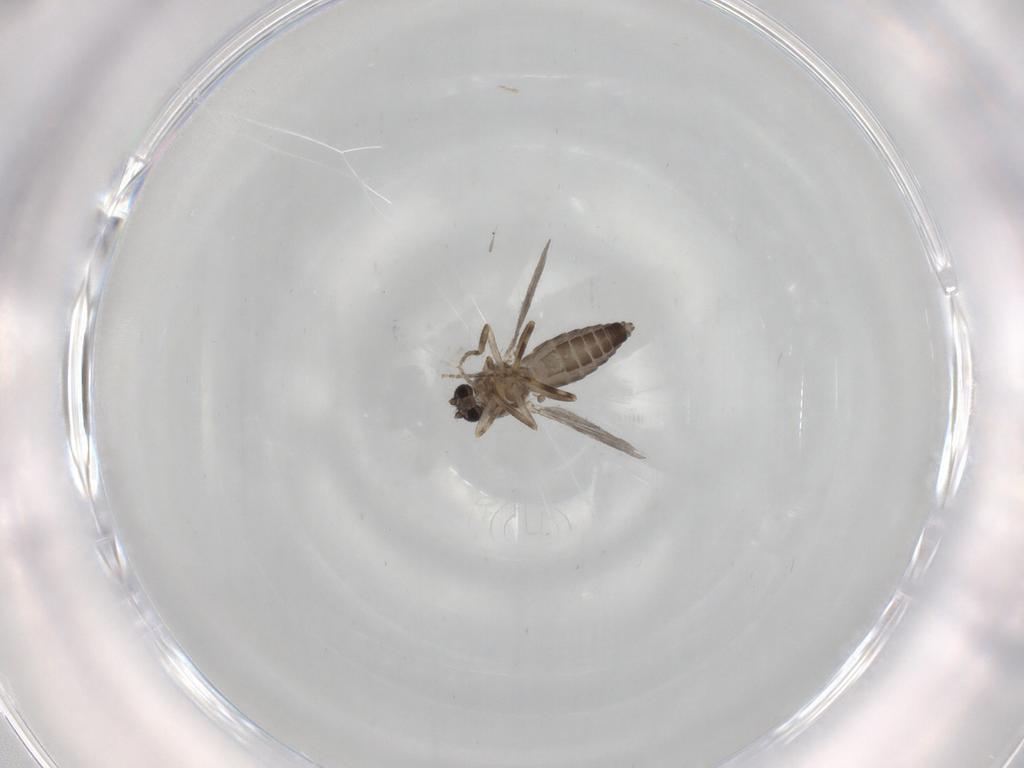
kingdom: Animalia
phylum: Arthropoda
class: Insecta
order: Diptera
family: Ceratopogonidae
